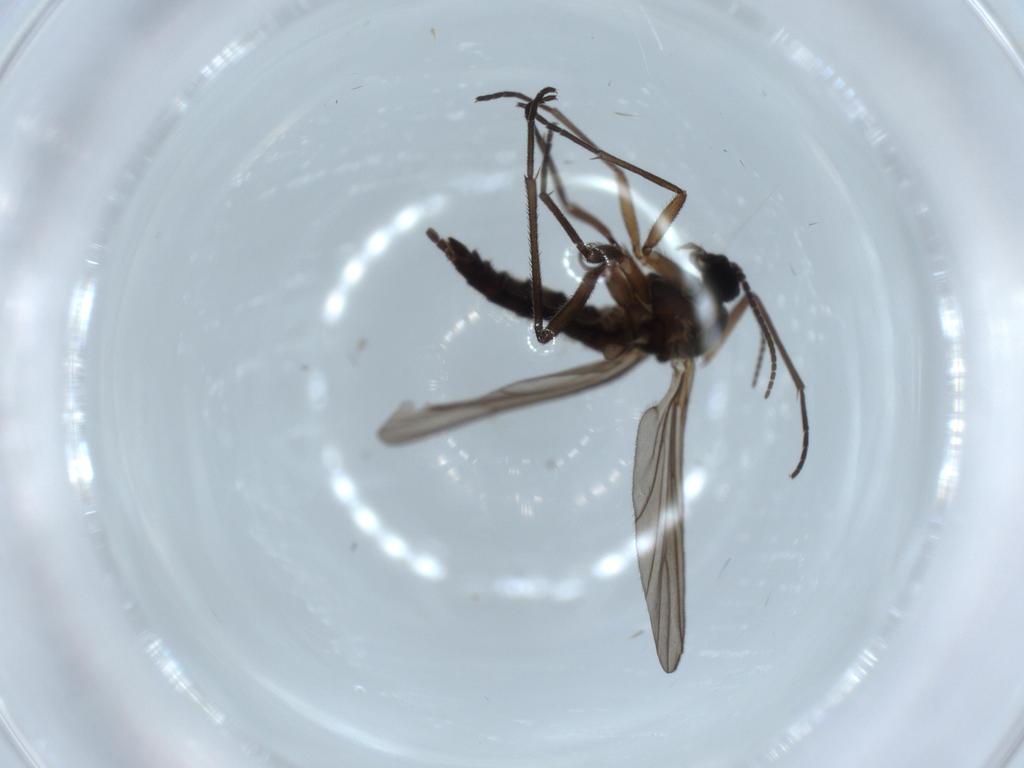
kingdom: Animalia
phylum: Arthropoda
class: Insecta
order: Diptera
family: Sciaridae
